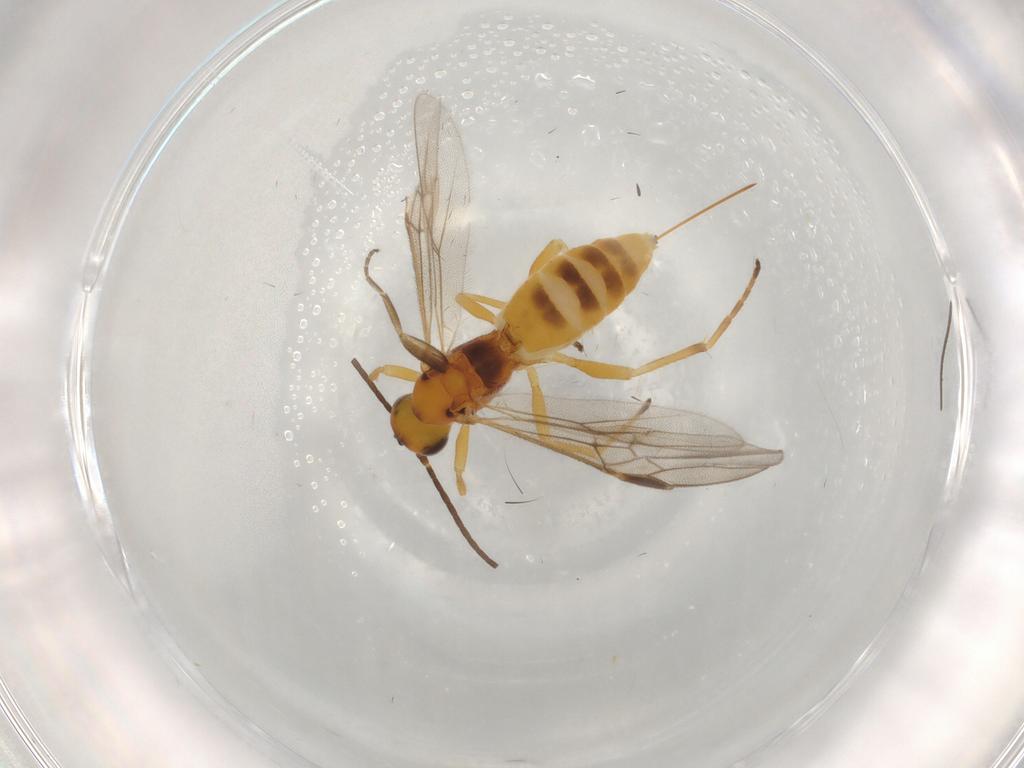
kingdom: Animalia
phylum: Arthropoda
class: Insecta
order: Hymenoptera
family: Braconidae
